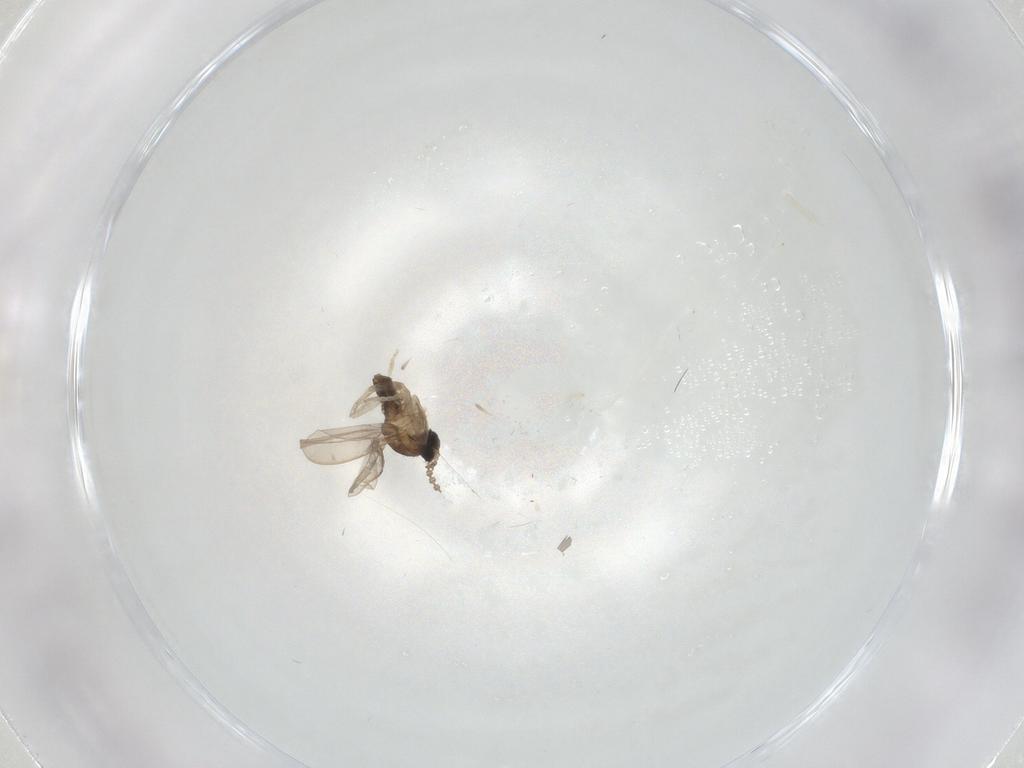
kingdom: Animalia
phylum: Arthropoda
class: Insecta
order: Diptera
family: Cecidomyiidae
